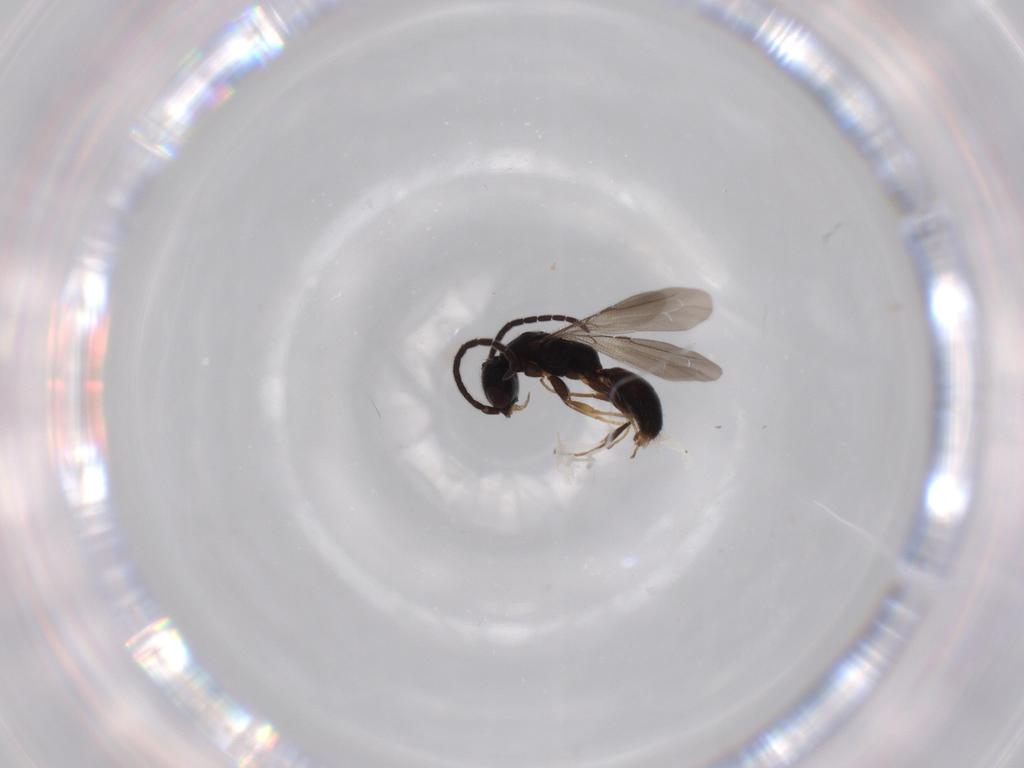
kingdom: Animalia
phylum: Arthropoda
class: Insecta
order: Hymenoptera
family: Bethylidae
